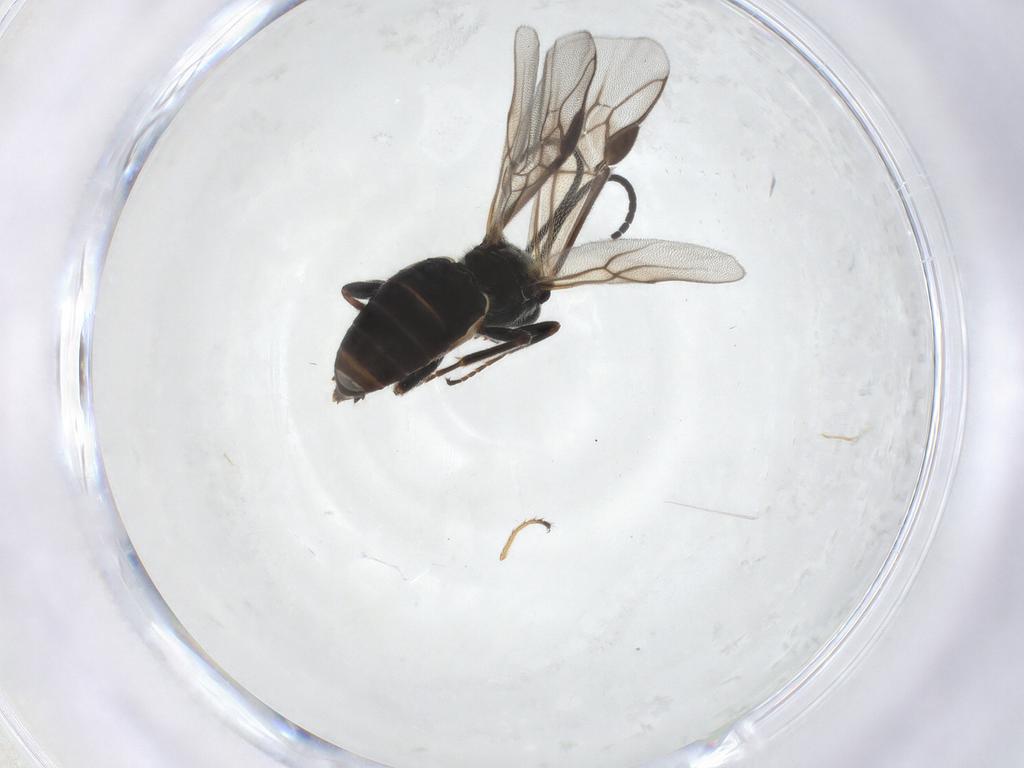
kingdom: Animalia
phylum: Arthropoda
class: Insecta
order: Hymenoptera
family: Braconidae
